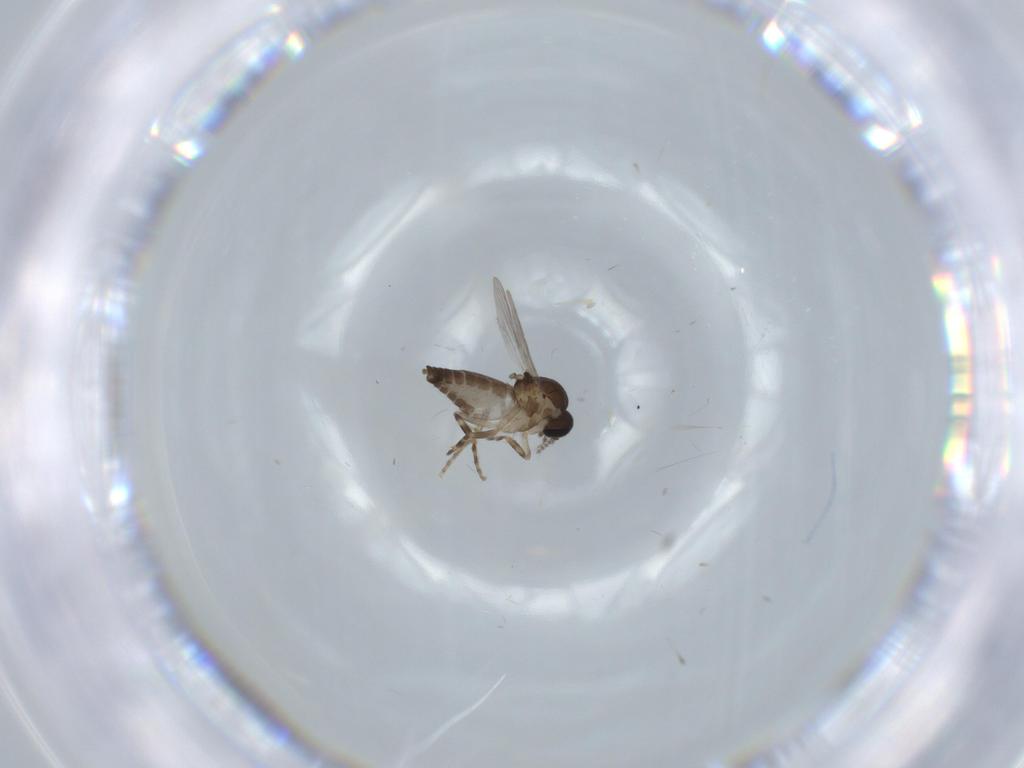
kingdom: Animalia
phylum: Arthropoda
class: Insecta
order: Diptera
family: Ceratopogonidae
